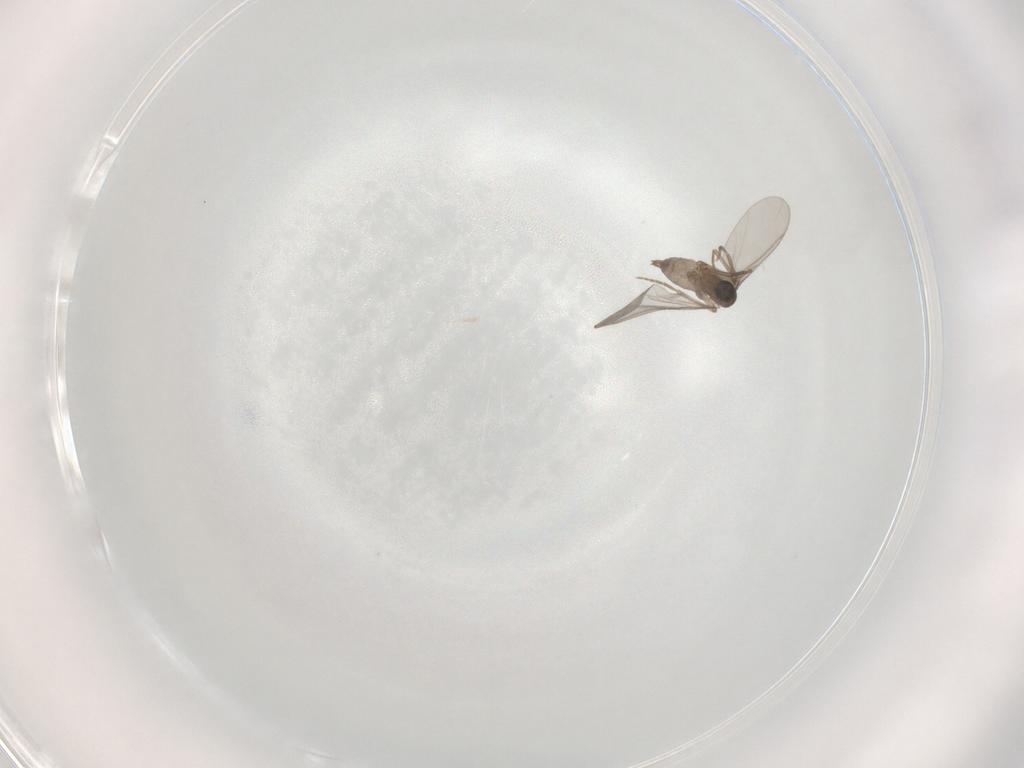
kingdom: Animalia
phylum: Arthropoda
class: Insecta
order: Diptera
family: Sciaridae
